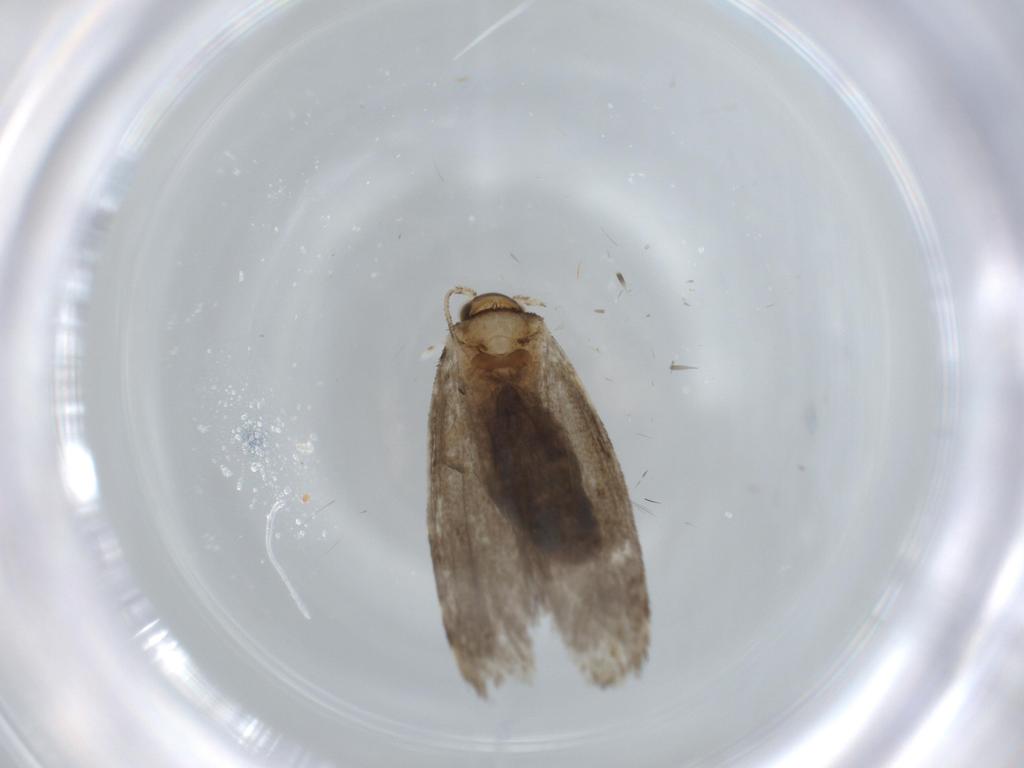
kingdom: Animalia
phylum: Arthropoda
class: Insecta
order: Lepidoptera
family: Tineidae
